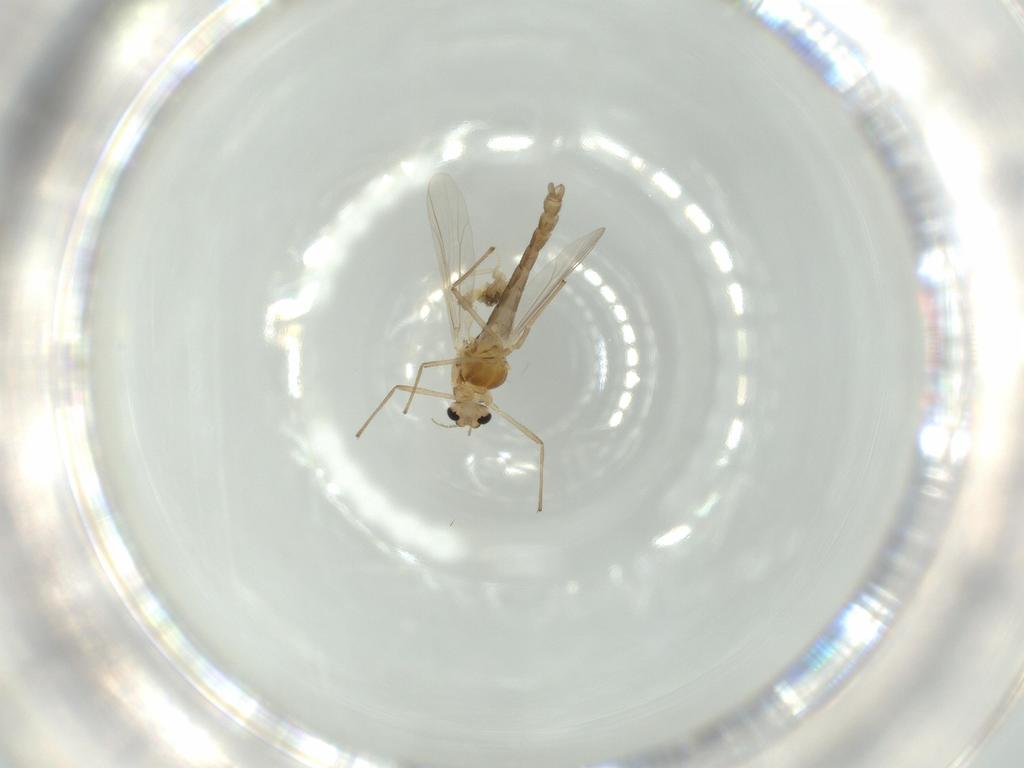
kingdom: Animalia
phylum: Arthropoda
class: Insecta
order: Diptera
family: Chironomidae
